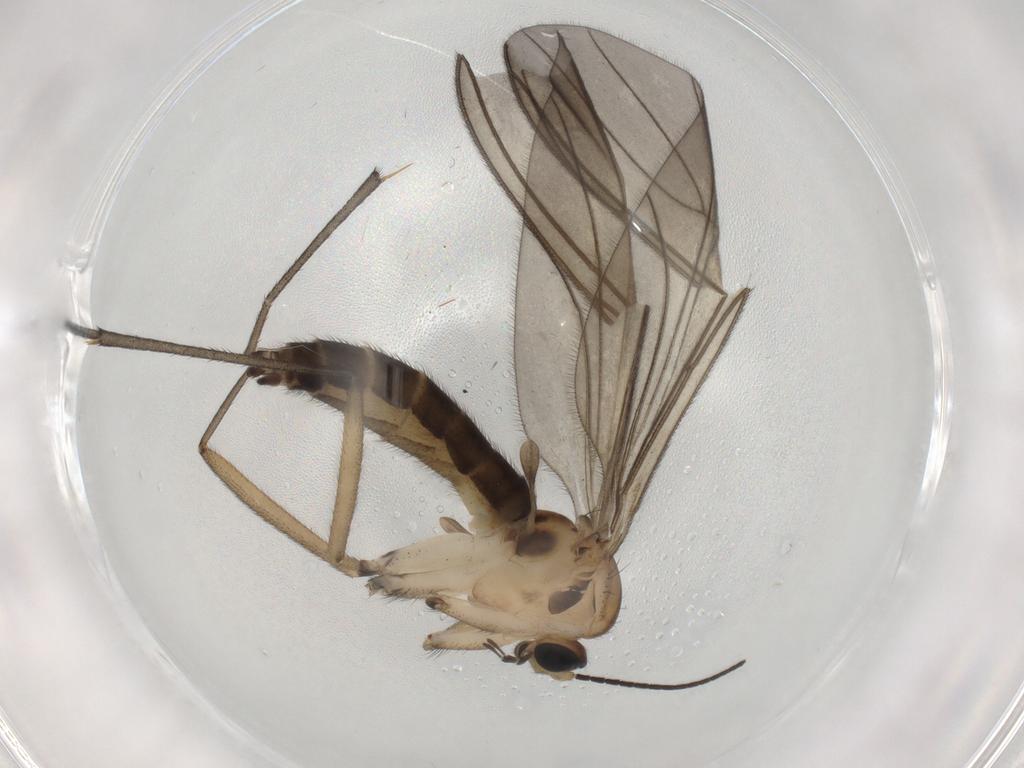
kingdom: Animalia
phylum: Arthropoda
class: Insecta
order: Diptera
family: Sciaridae
